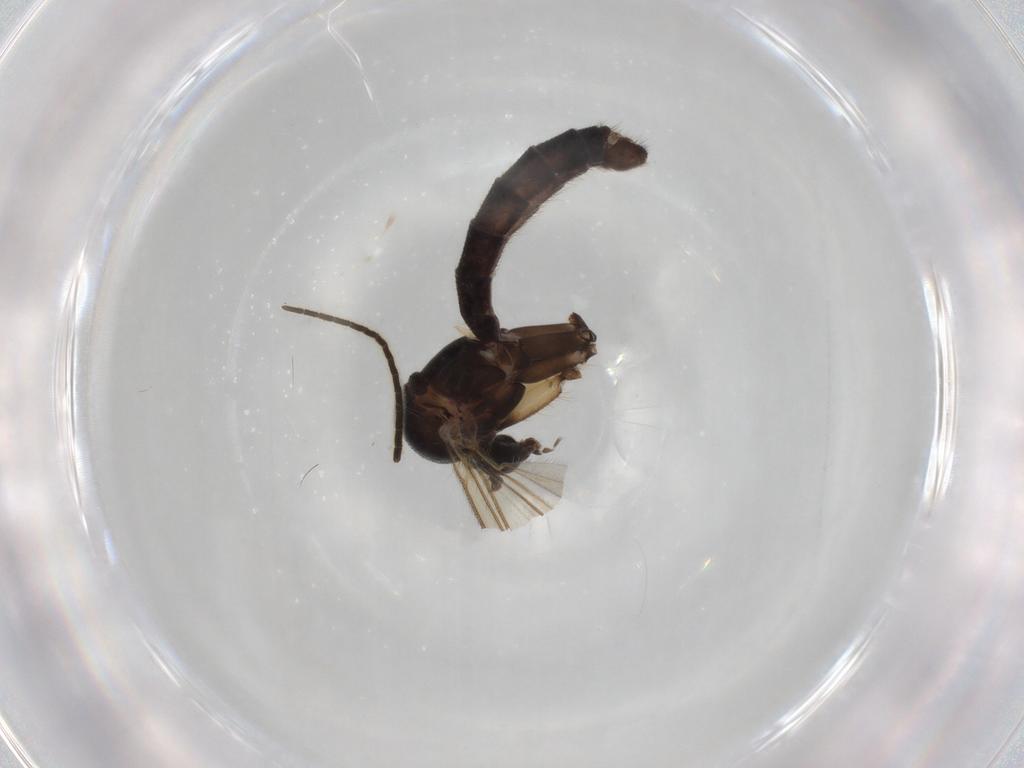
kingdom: Animalia
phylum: Arthropoda
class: Insecta
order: Diptera
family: Mycetophilidae
